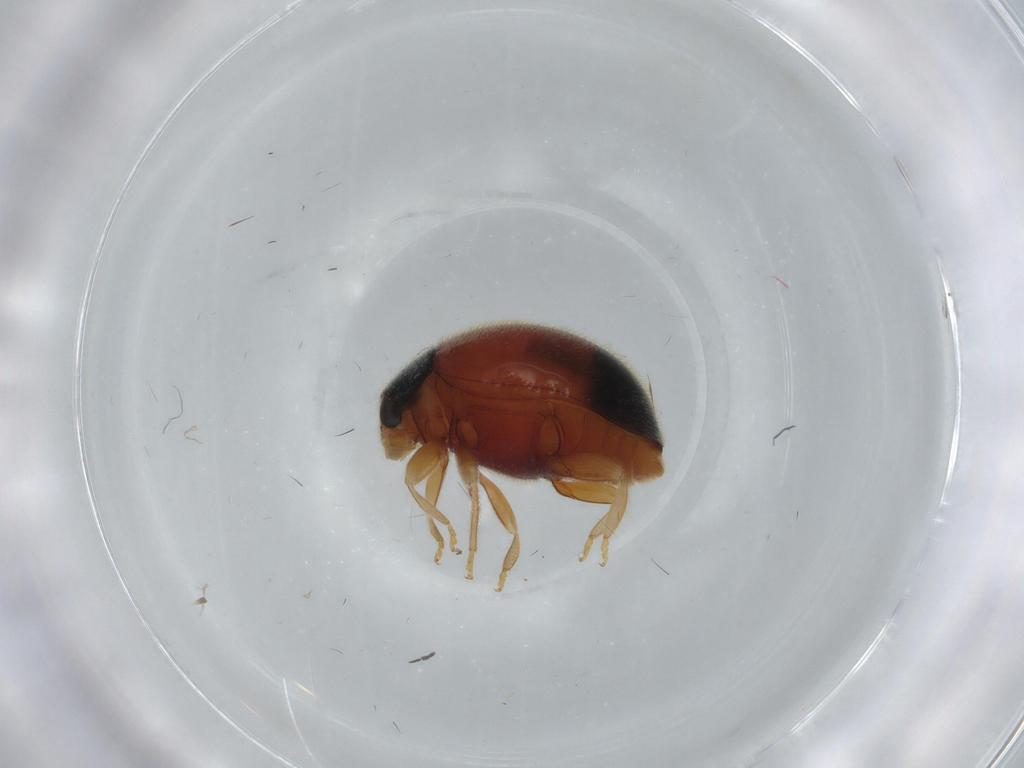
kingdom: Animalia
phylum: Arthropoda
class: Insecta
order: Coleoptera
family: Coccinellidae
